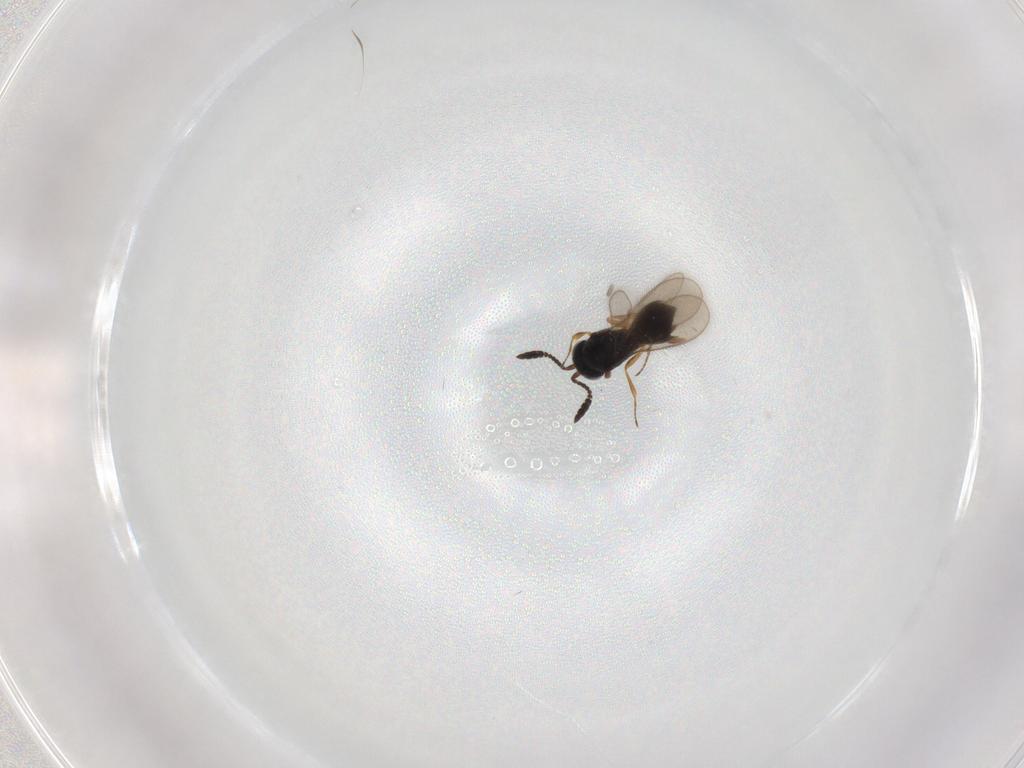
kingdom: Animalia
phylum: Arthropoda
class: Insecta
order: Hymenoptera
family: Scelionidae
